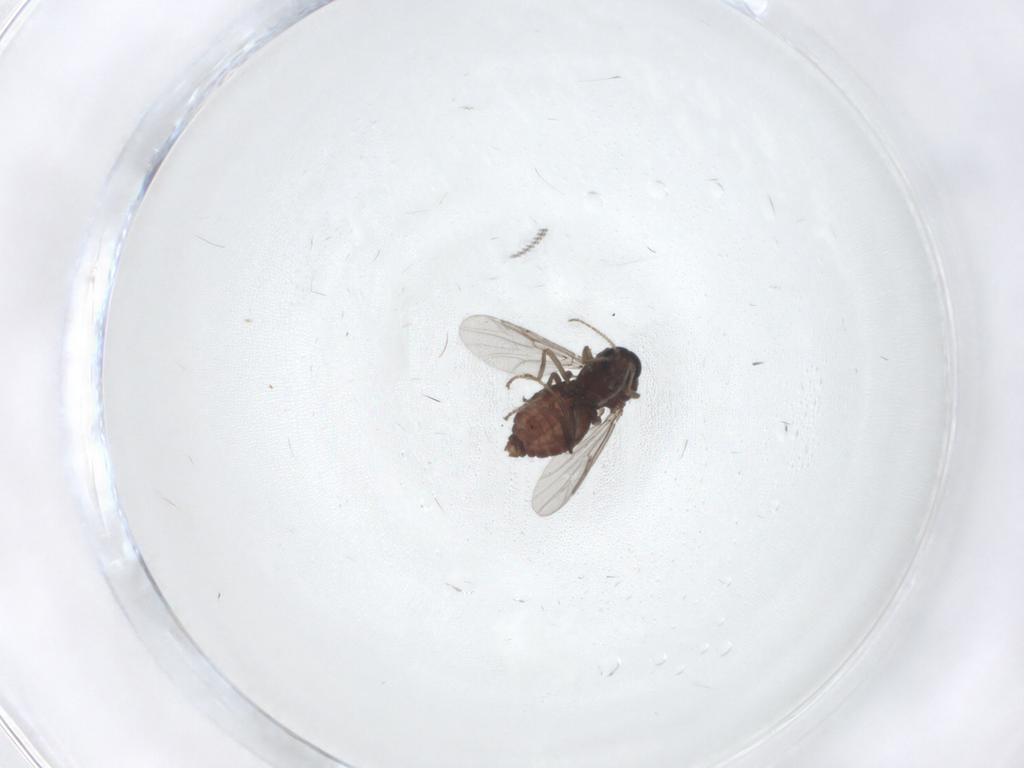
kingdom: Animalia
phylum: Arthropoda
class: Insecta
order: Diptera
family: Ceratopogonidae
